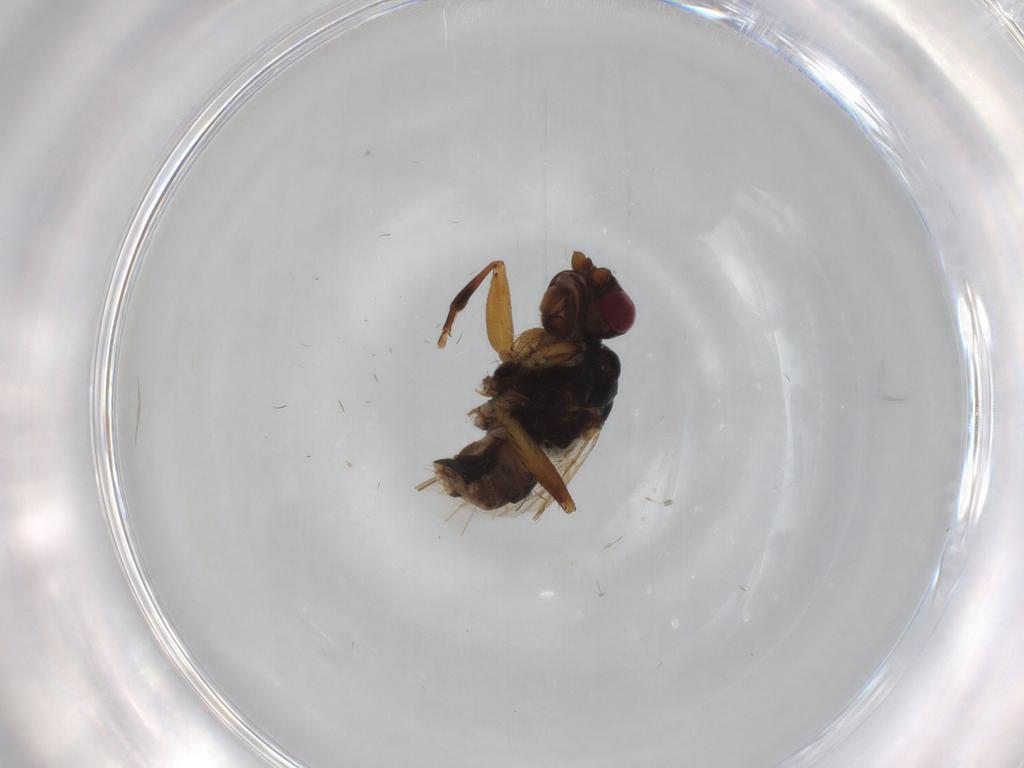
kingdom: Animalia
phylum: Arthropoda
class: Insecta
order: Diptera
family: Sphaeroceridae
